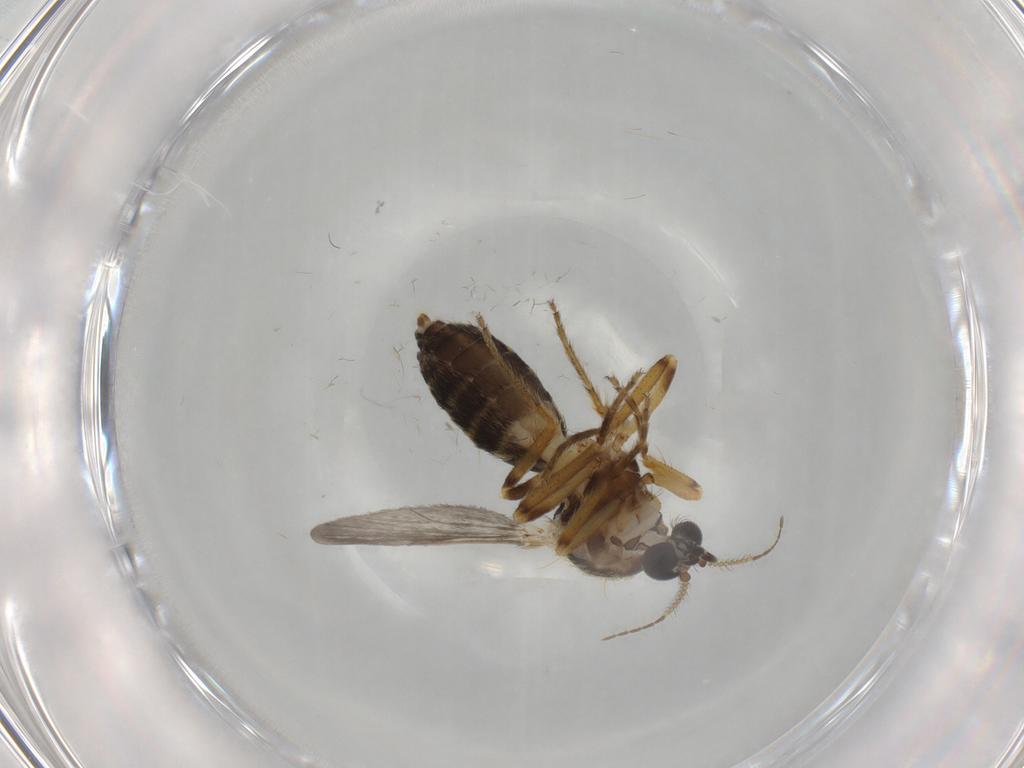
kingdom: Animalia
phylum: Arthropoda
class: Insecta
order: Diptera
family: Ceratopogonidae
